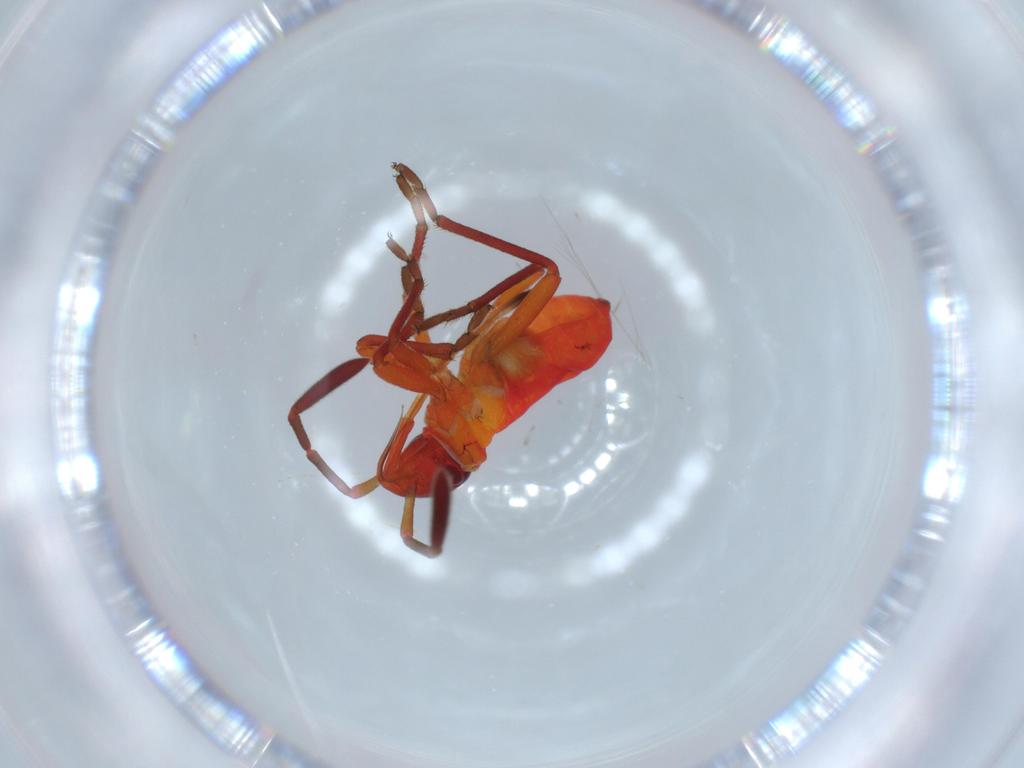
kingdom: Animalia
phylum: Arthropoda
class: Insecta
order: Hemiptera
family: Pyrrhocoridae
